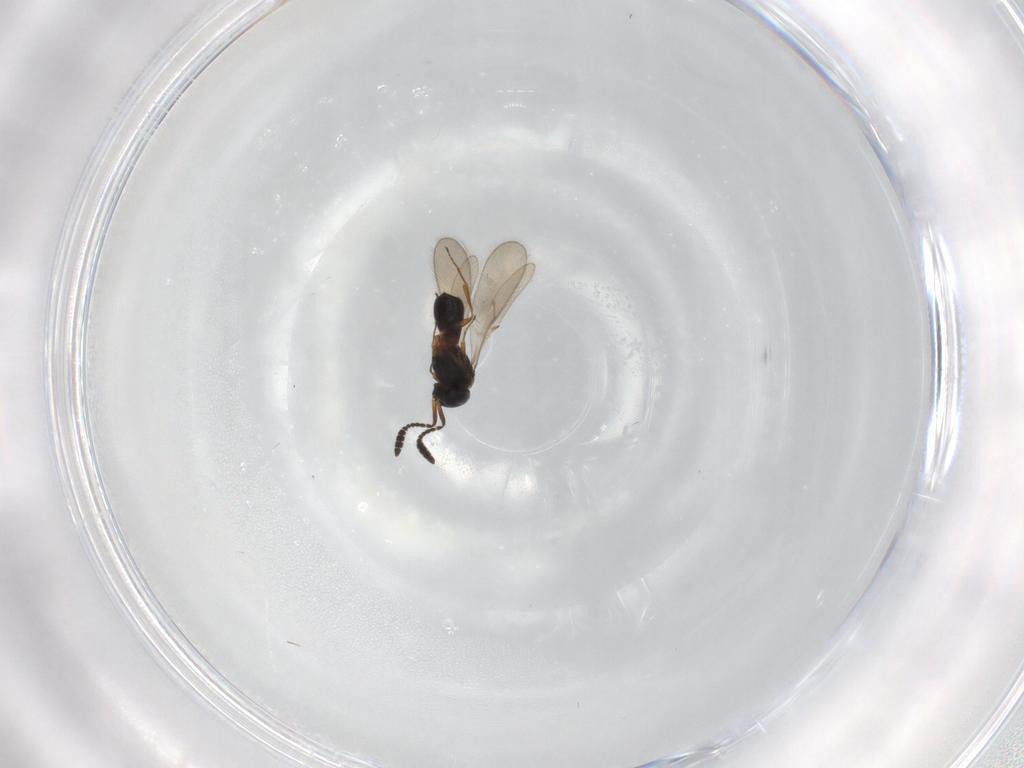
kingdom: Animalia
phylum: Arthropoda
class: Insecta
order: Hymenoptera
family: Scelionidae
